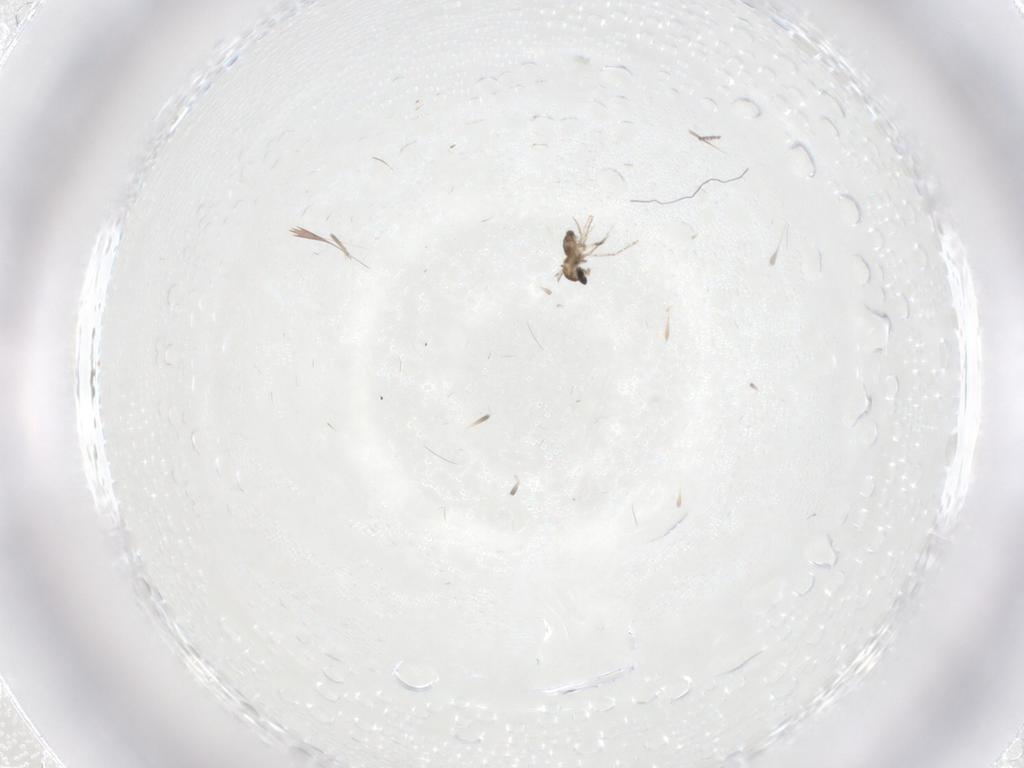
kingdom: Animalia
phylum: Arthropoda
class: Insecta
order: Diptera
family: Cecidomyiidae
